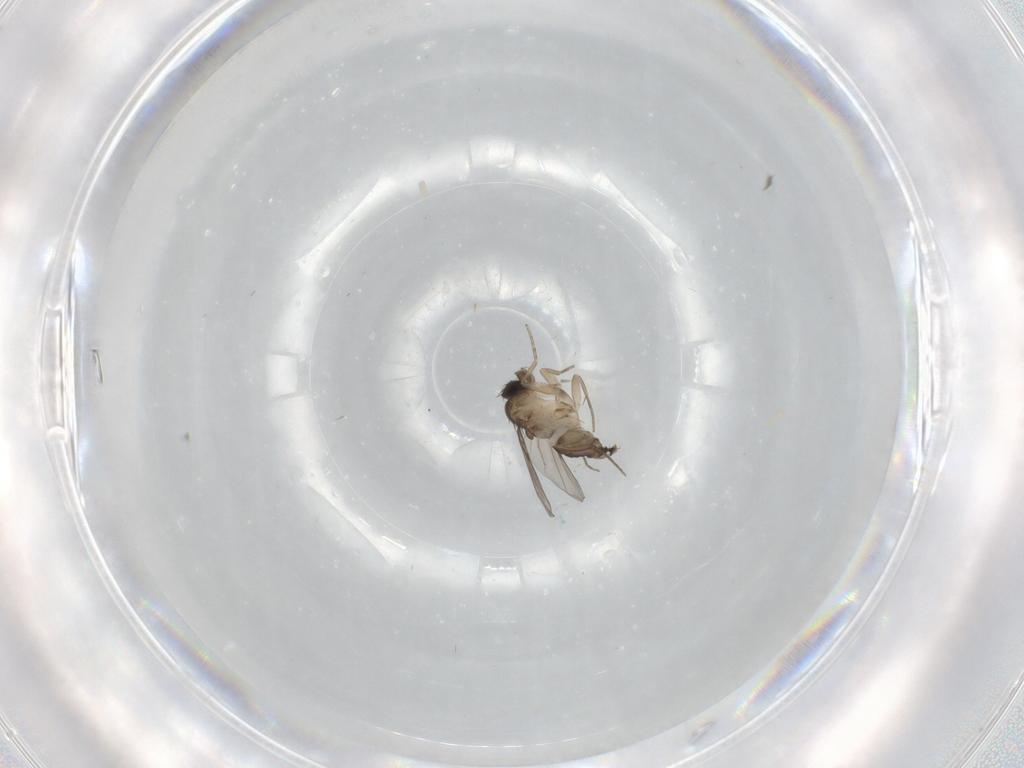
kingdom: Animalia
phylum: Arthropoda
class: Insecta
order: Diptera
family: Phoridae
